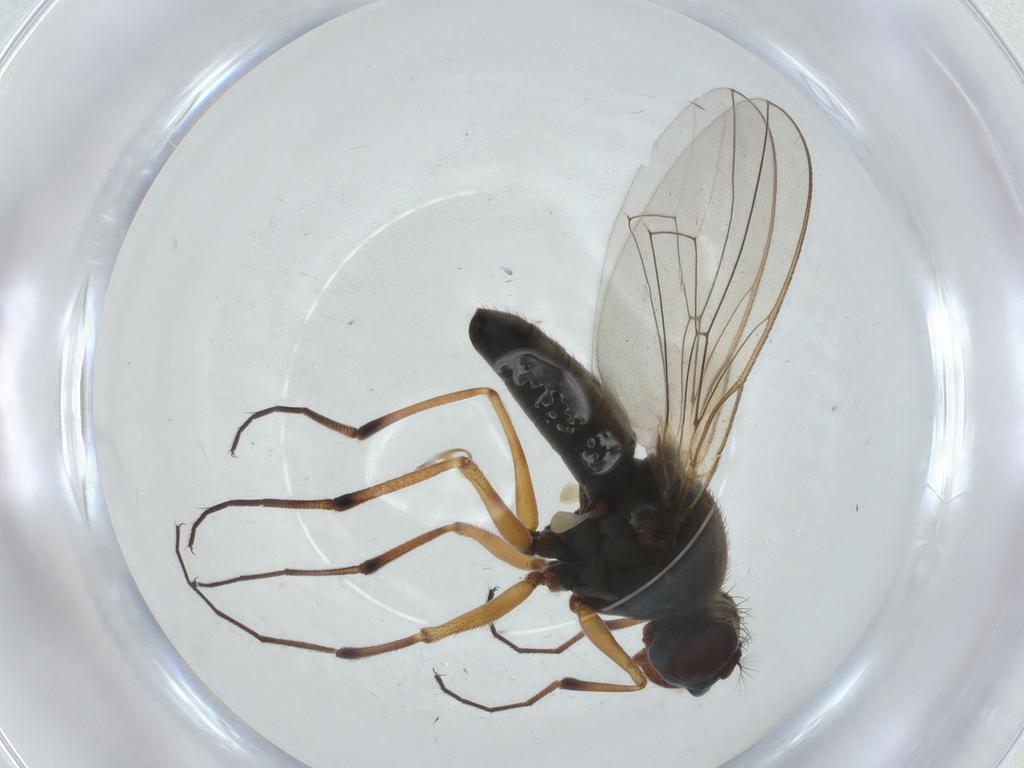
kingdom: Animalia
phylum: Arthropoda
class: Insecta
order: Diptera
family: Ephydridae
